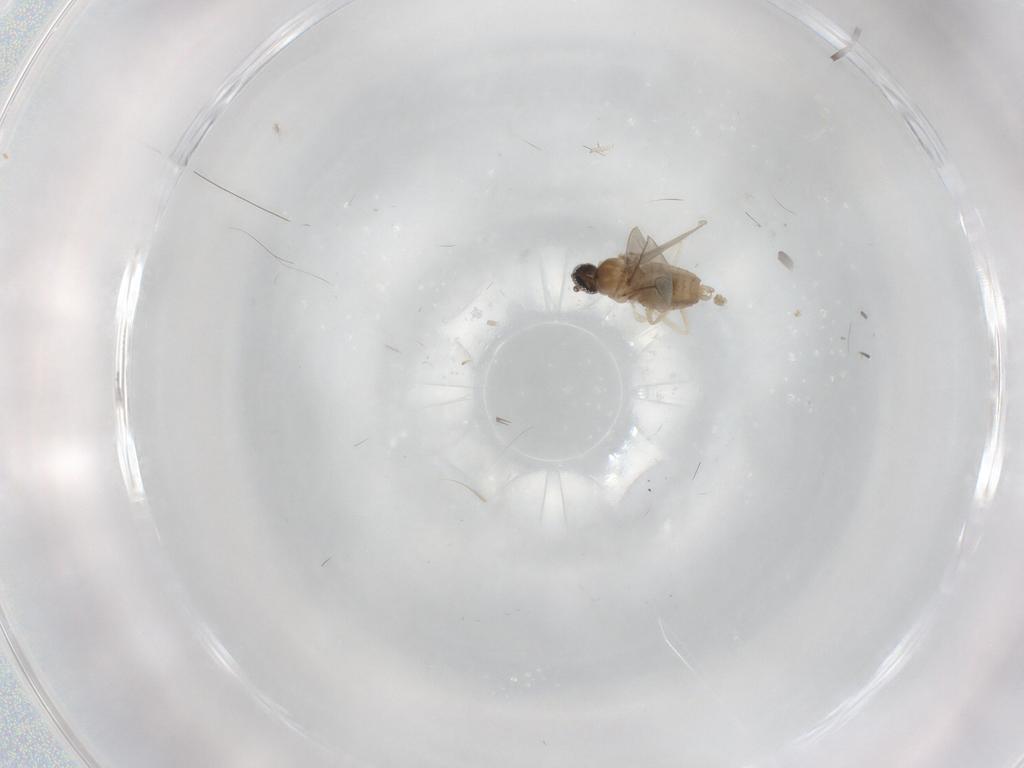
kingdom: Animalia
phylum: Arthropoda
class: Insecta
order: Diptera
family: Cecidomyiidae
